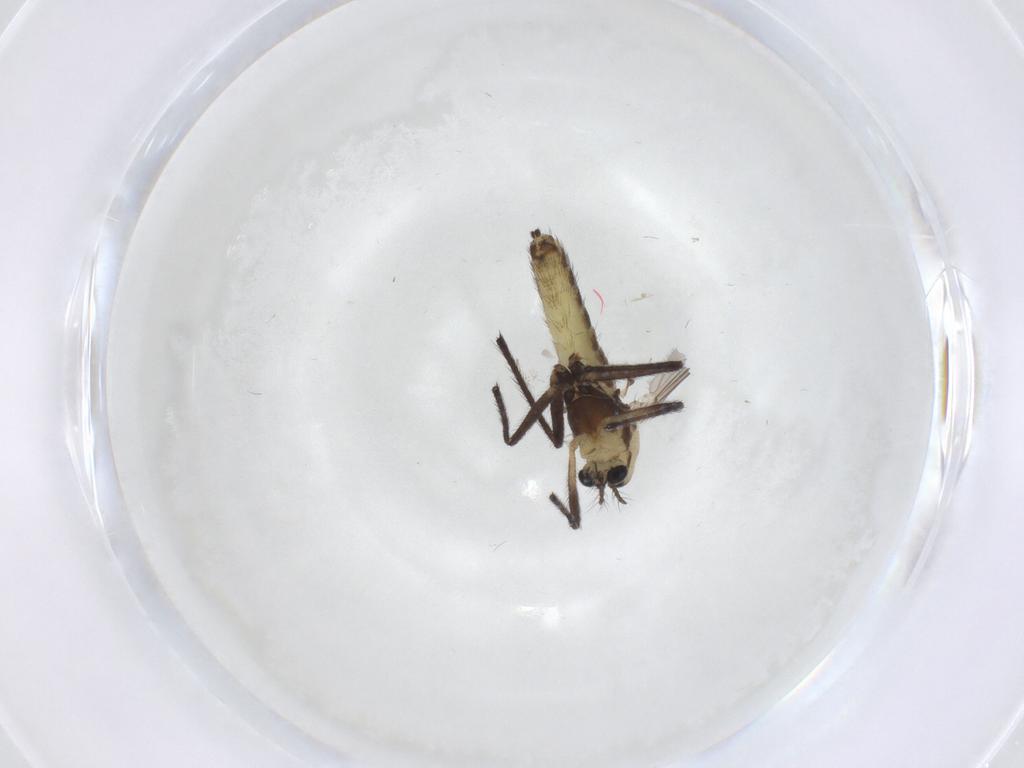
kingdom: Animalia
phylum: Arthropoda
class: Insecta
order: Diptera
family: Chironomidae
